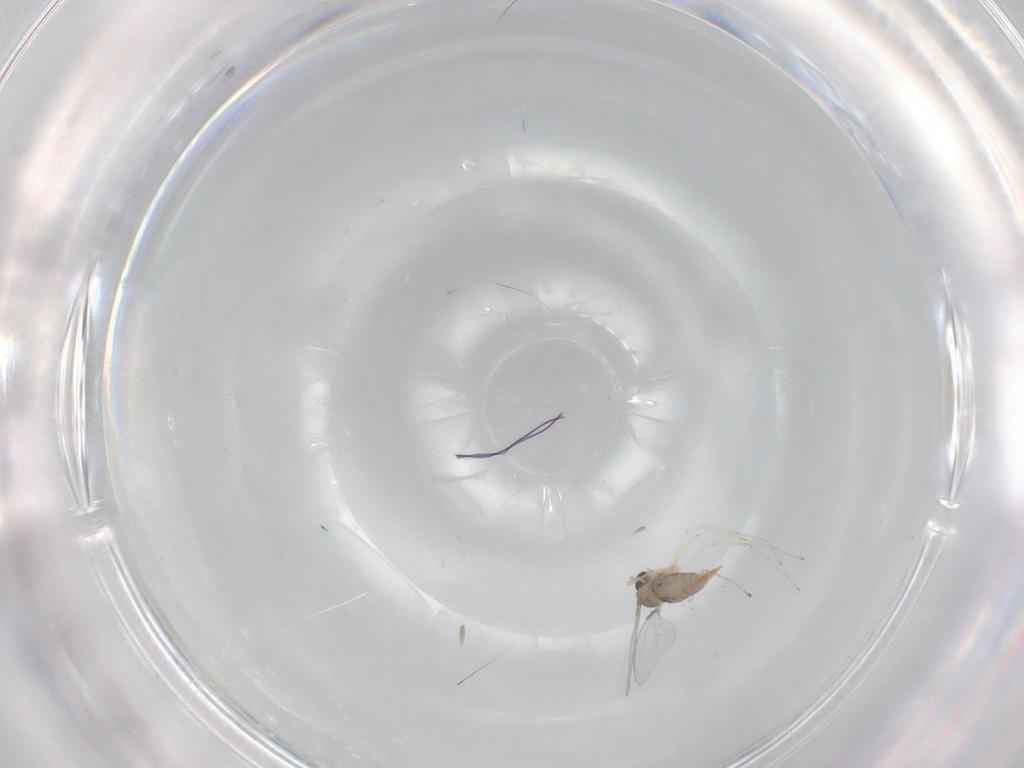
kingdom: Animalia
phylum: Arthropoda
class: Insecta
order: Diptera
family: Cecidomyiidae
